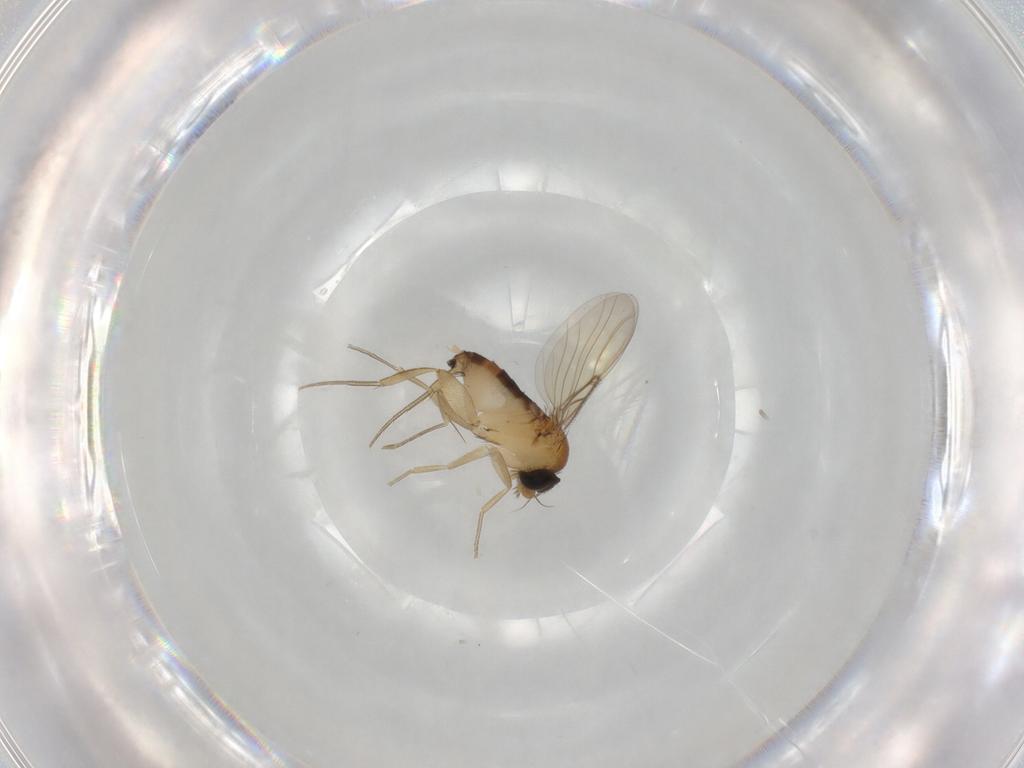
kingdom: Animalia
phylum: Arthropoda
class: Insecta
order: Diptera
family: Phoridae
